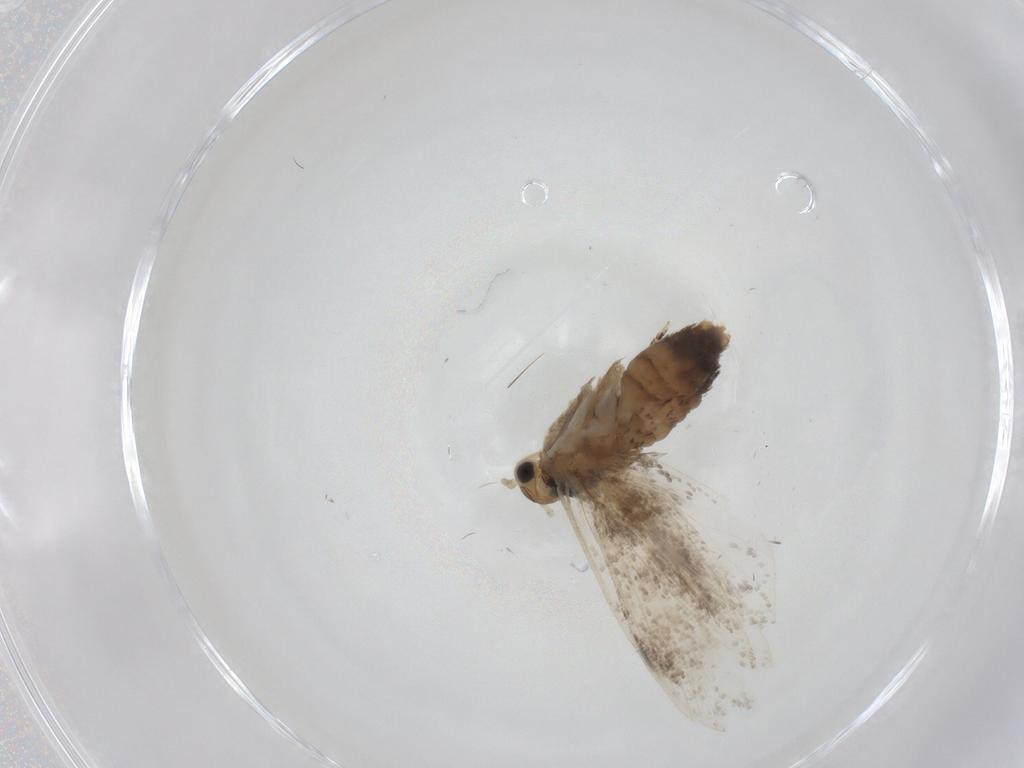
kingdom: Animalia
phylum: Arthropoda
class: Insecta
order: Lepidoptera
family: Tineidae
